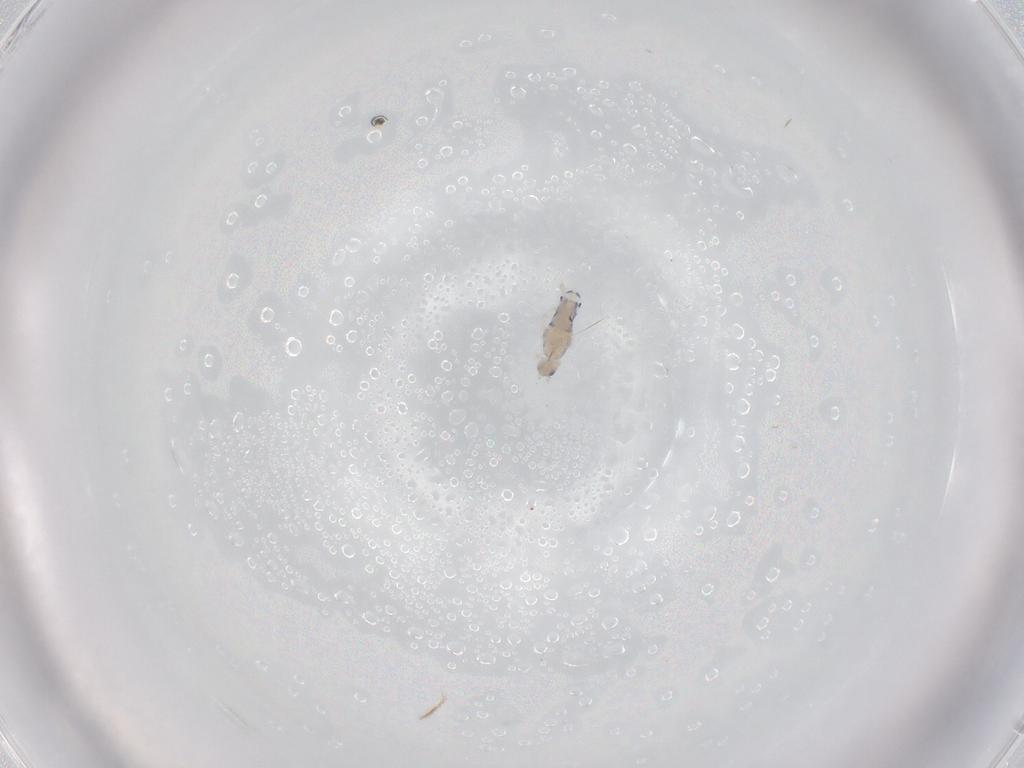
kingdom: Animalia
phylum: Arthropoda
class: Collembola
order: Entomobryomorpha
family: Entomobryidae
